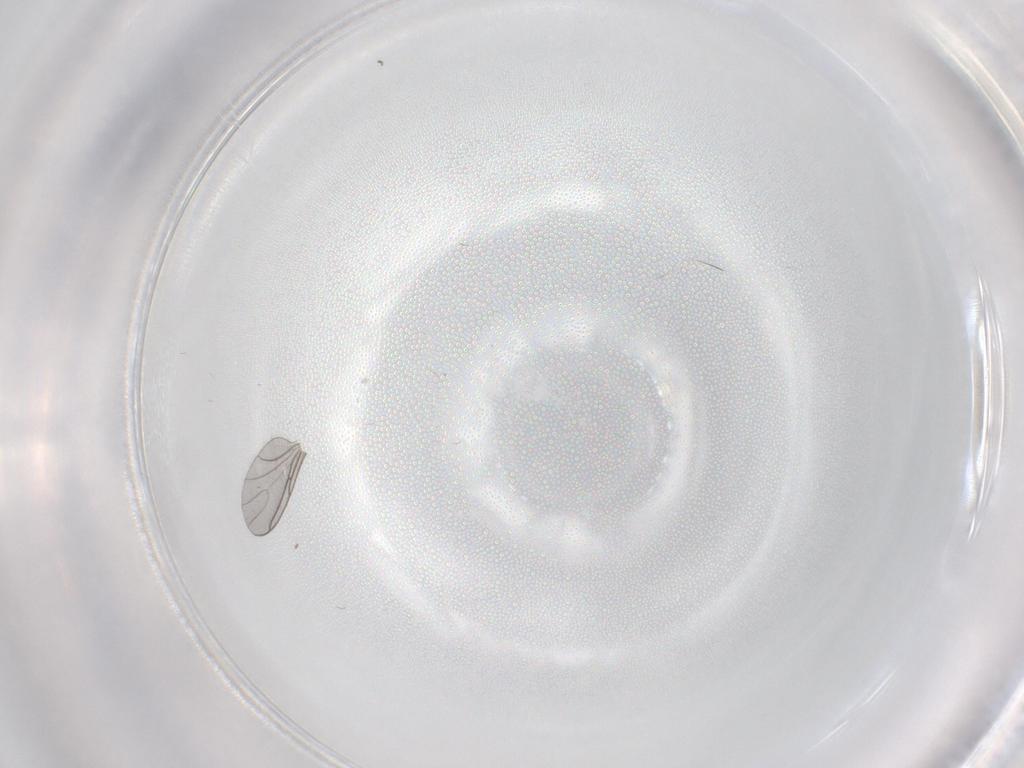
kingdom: Animalia
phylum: Arthropoda
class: Insecta
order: Diptera
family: Sciaridae
